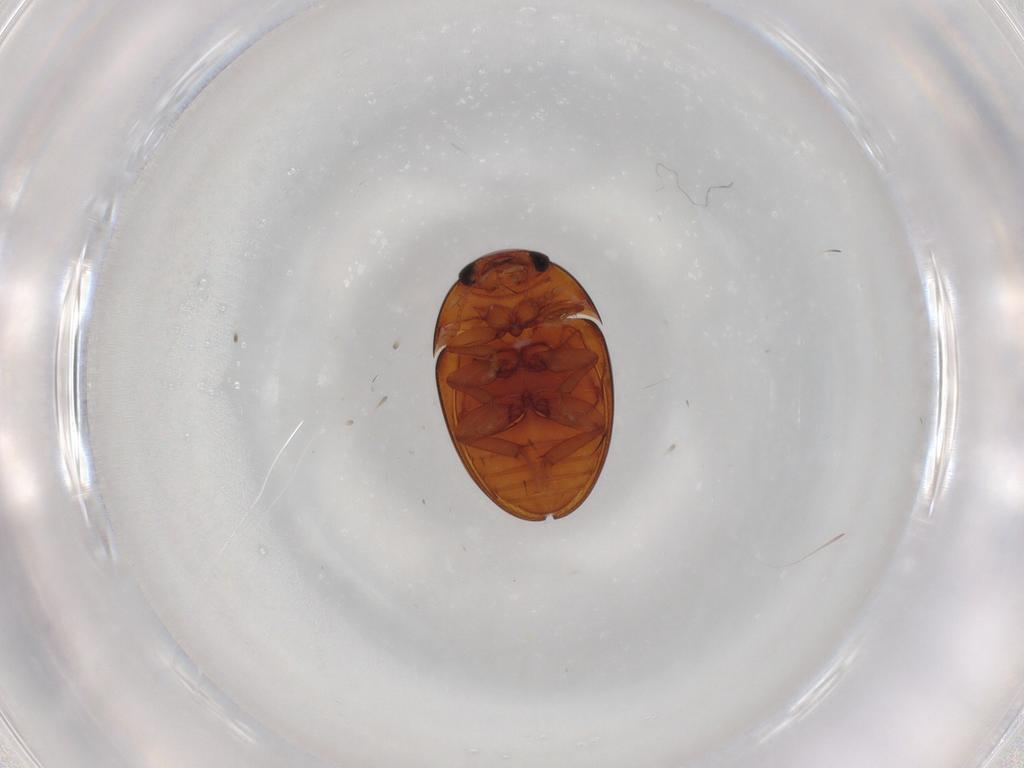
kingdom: Animalia
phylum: Arthropoda
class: Insecta
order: Coleoptera
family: Phalacridae
